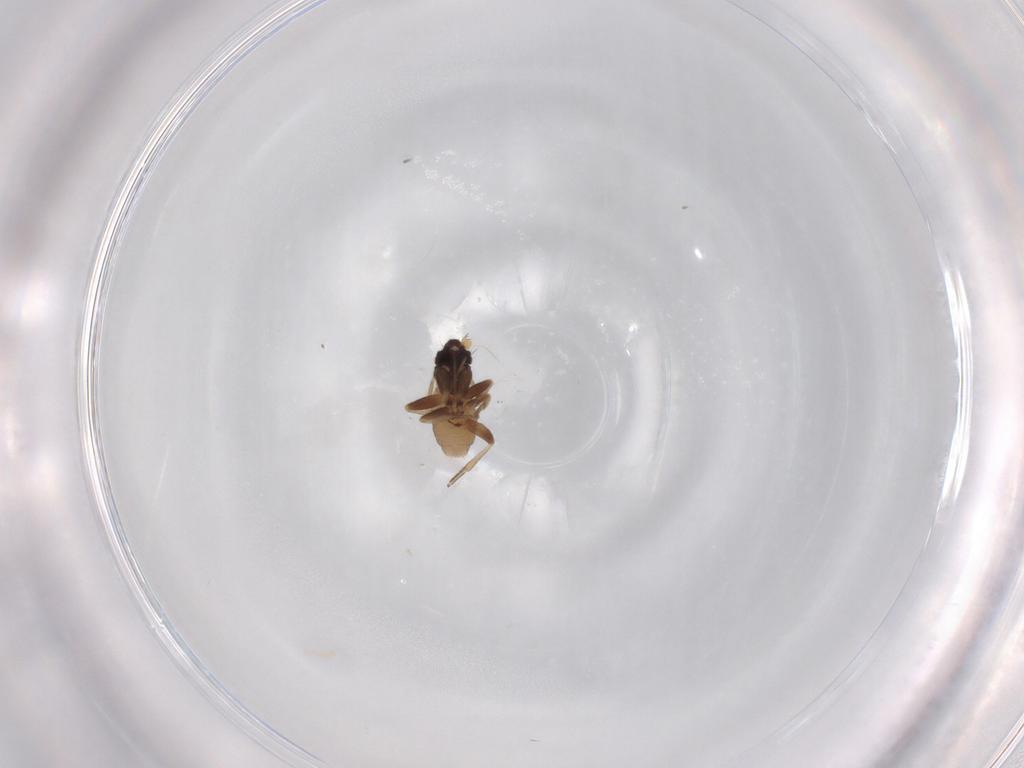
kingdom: Animalia
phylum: Arthropoda
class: Insecta
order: Diptera
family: Phoridae
